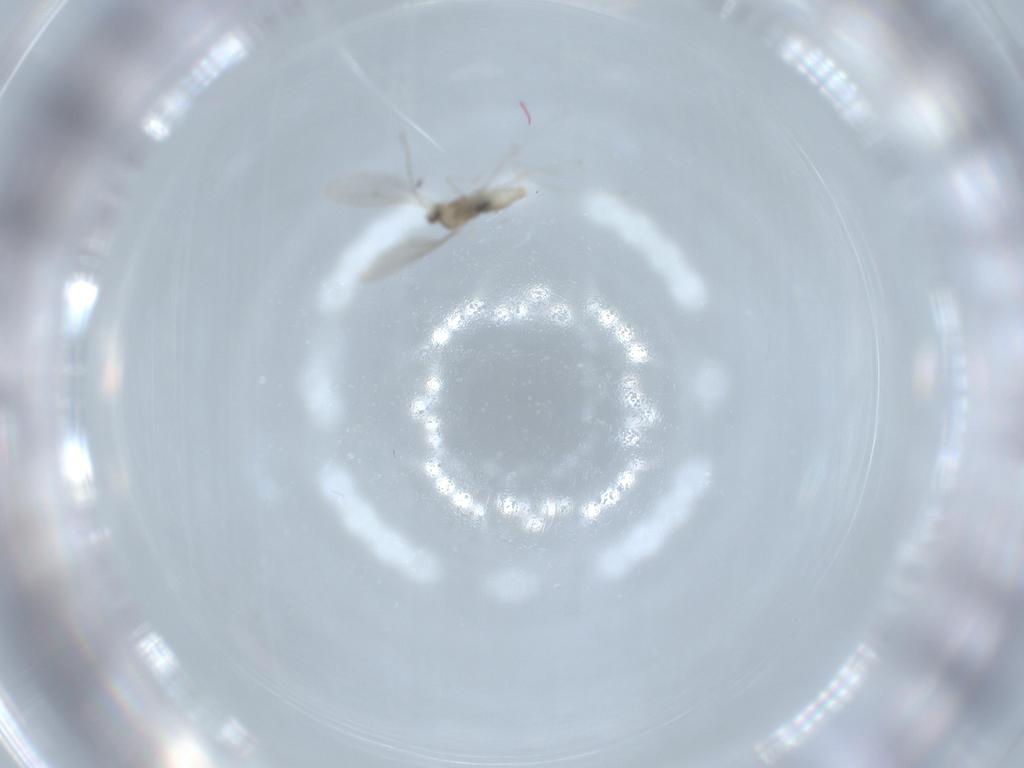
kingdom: Animalia
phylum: Arthropoda
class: Insecta
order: Diptera
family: Cecidomyiidae
